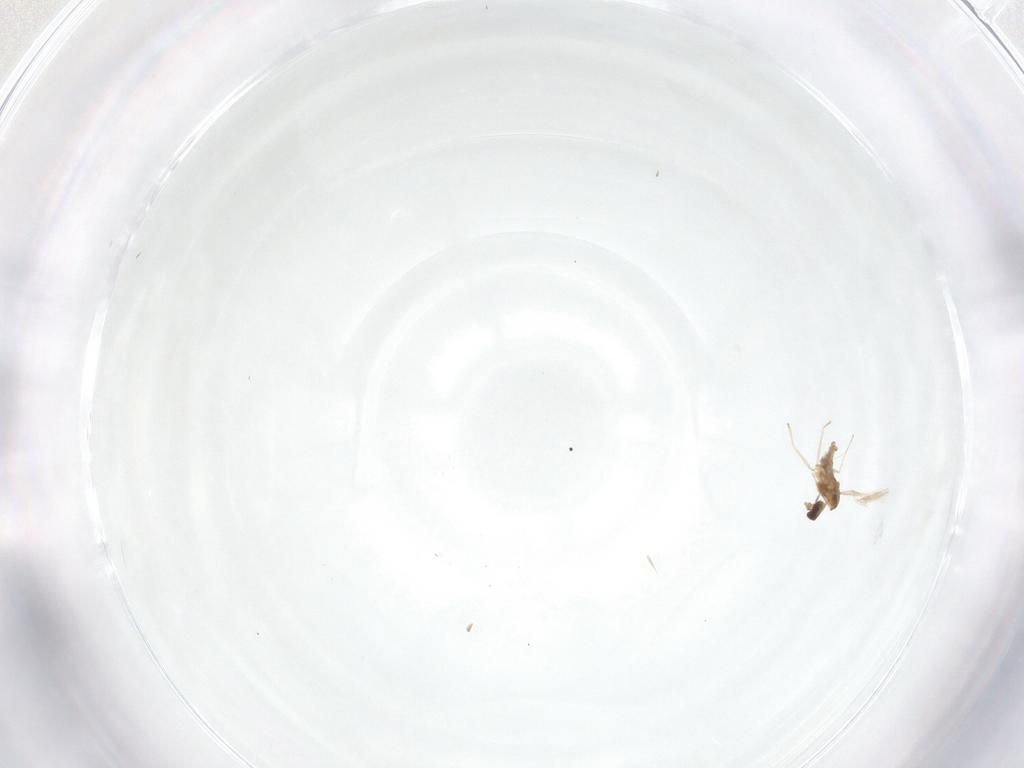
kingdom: Animalia
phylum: Arthropoda
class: Insecta
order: Diptera
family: Cecidomyiidae
